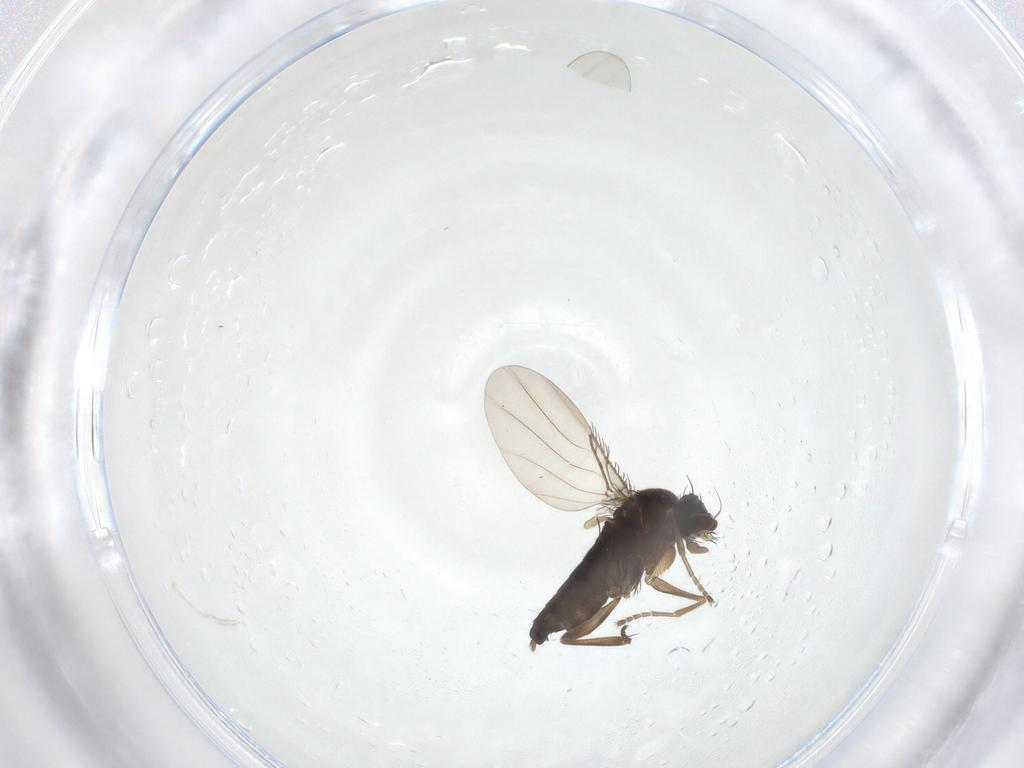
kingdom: Animalia
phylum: Arthropoda
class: Insecta
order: Diptera
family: Phoridae
